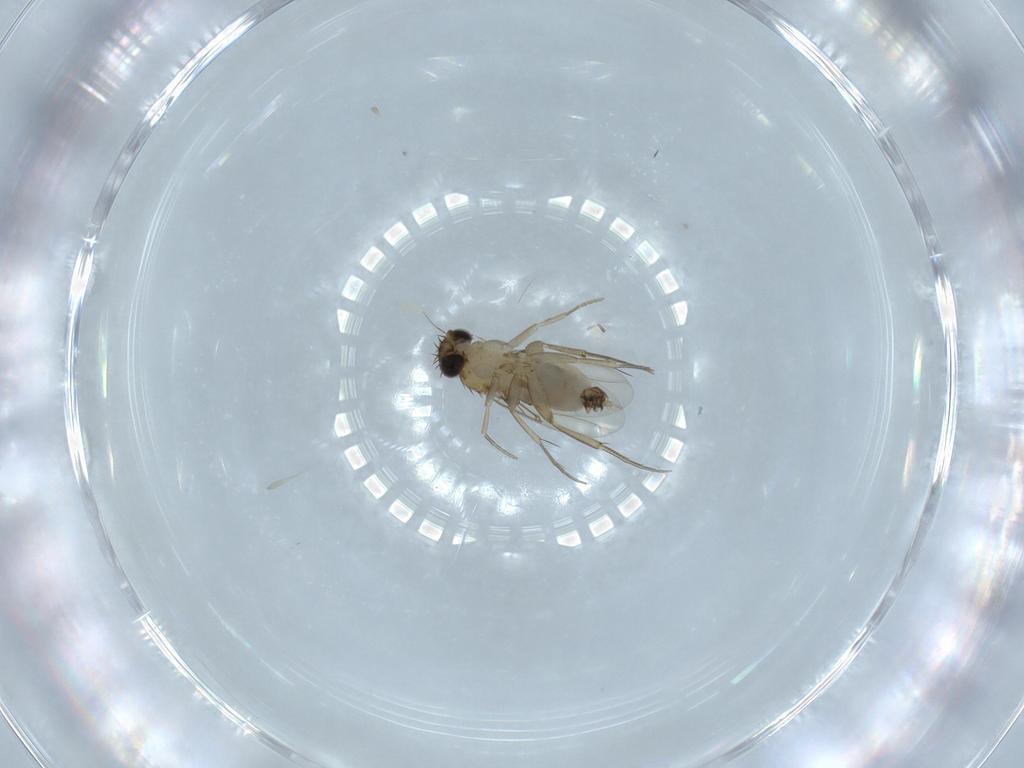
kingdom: Animalia
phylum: Arthropoda
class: Insecta
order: Diptera
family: Phoridae
